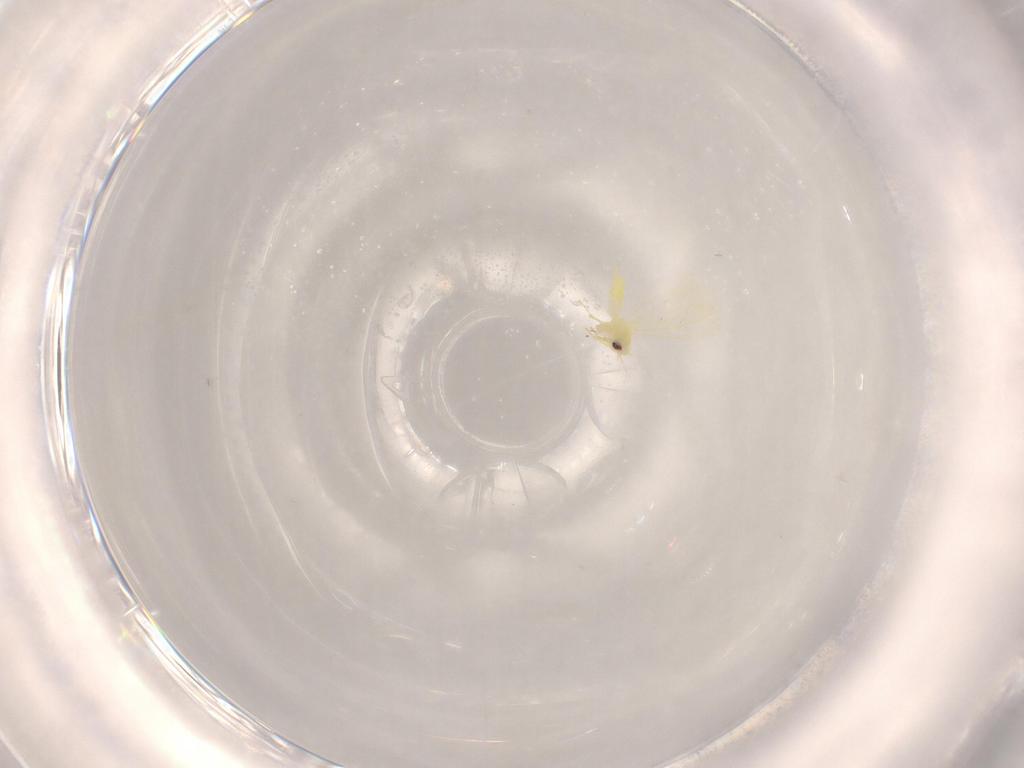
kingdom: Animalia
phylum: Arthropoda
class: Insecta
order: Hemiptera
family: Aleyrodidae
